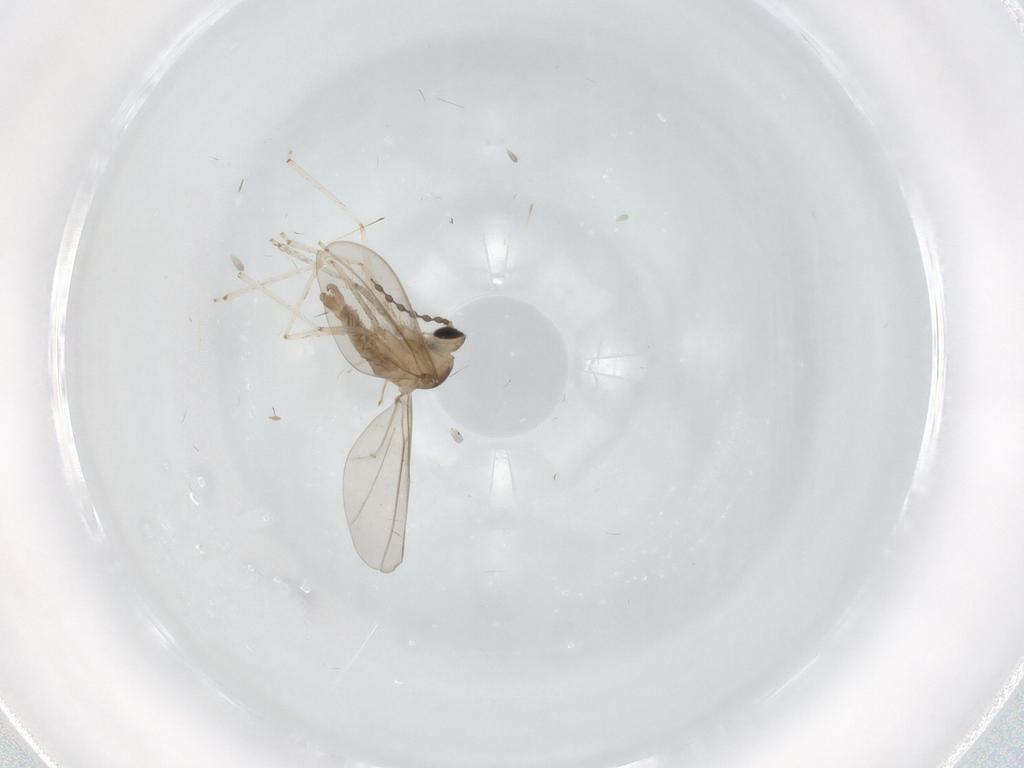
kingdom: Animalia
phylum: Arthropoda
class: Insecta
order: Diptera
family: Cecidomyiidae
